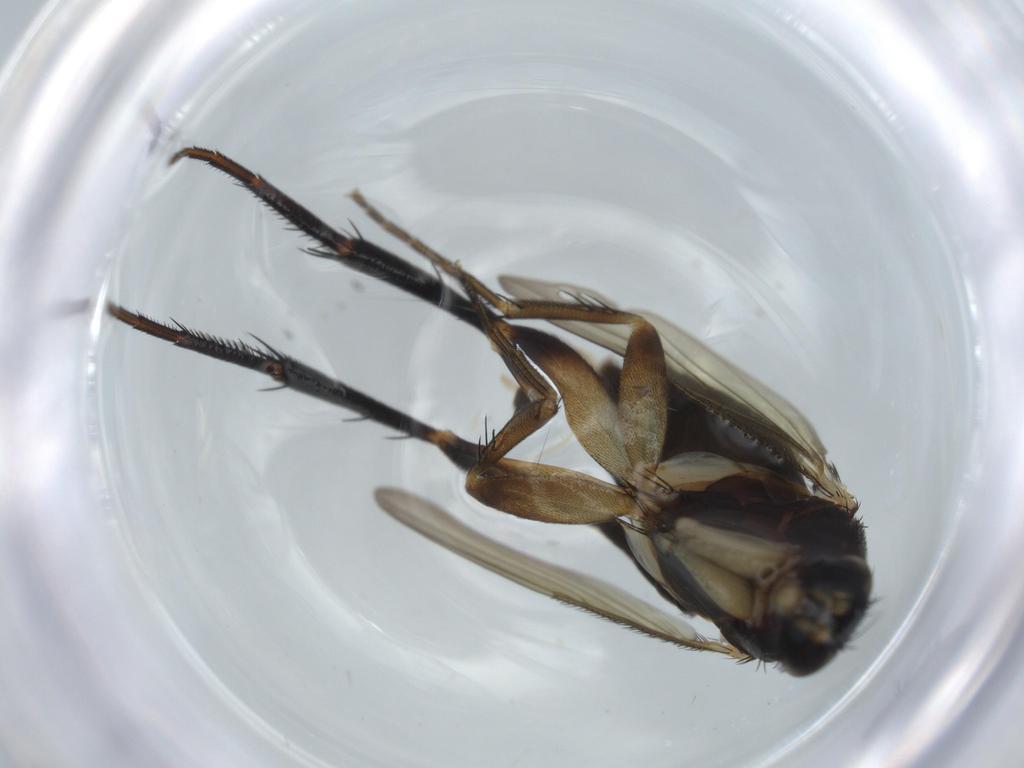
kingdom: Animalia
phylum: Arthropoda
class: Insecta
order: Diptera
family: Phoridae
